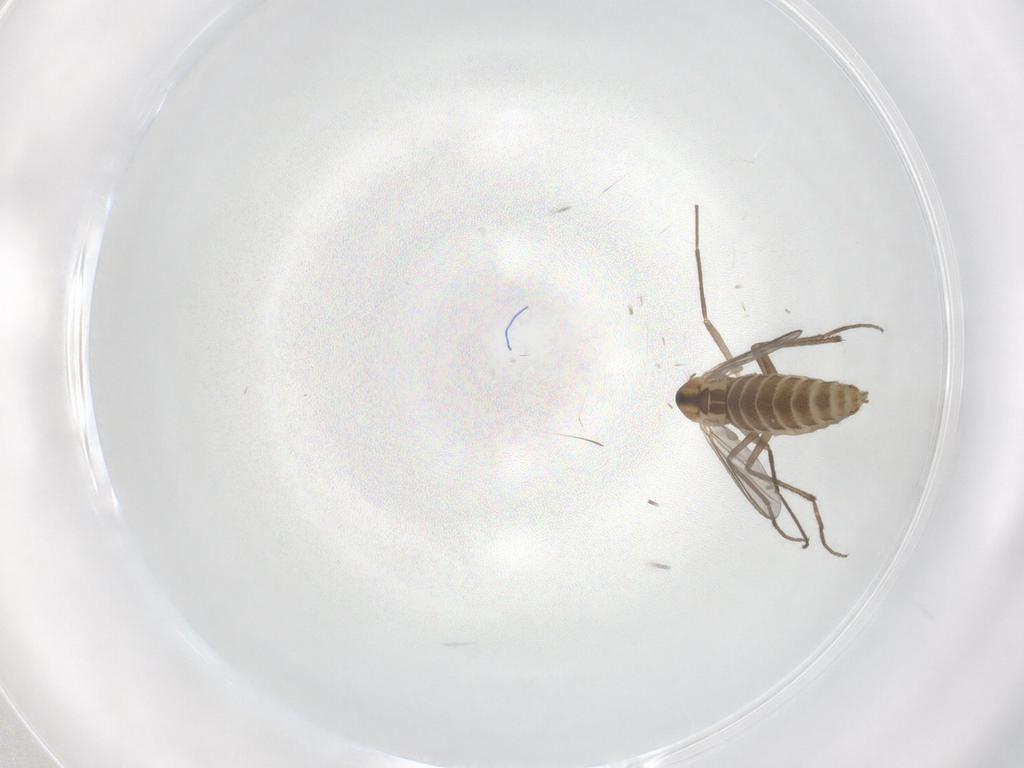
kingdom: Animalia
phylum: Arthropoda
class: Insecta
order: Diptera
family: Chironomidae
